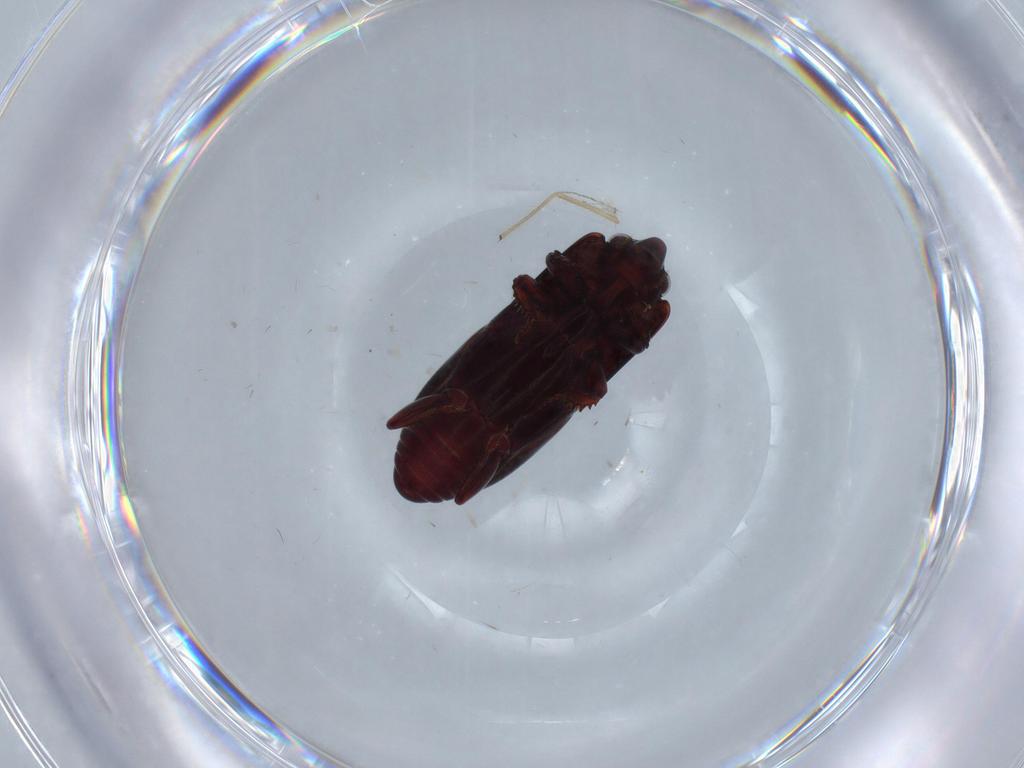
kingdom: Animalia
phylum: Arthropoda
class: Insecta
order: Coleoptera
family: Histeridae
